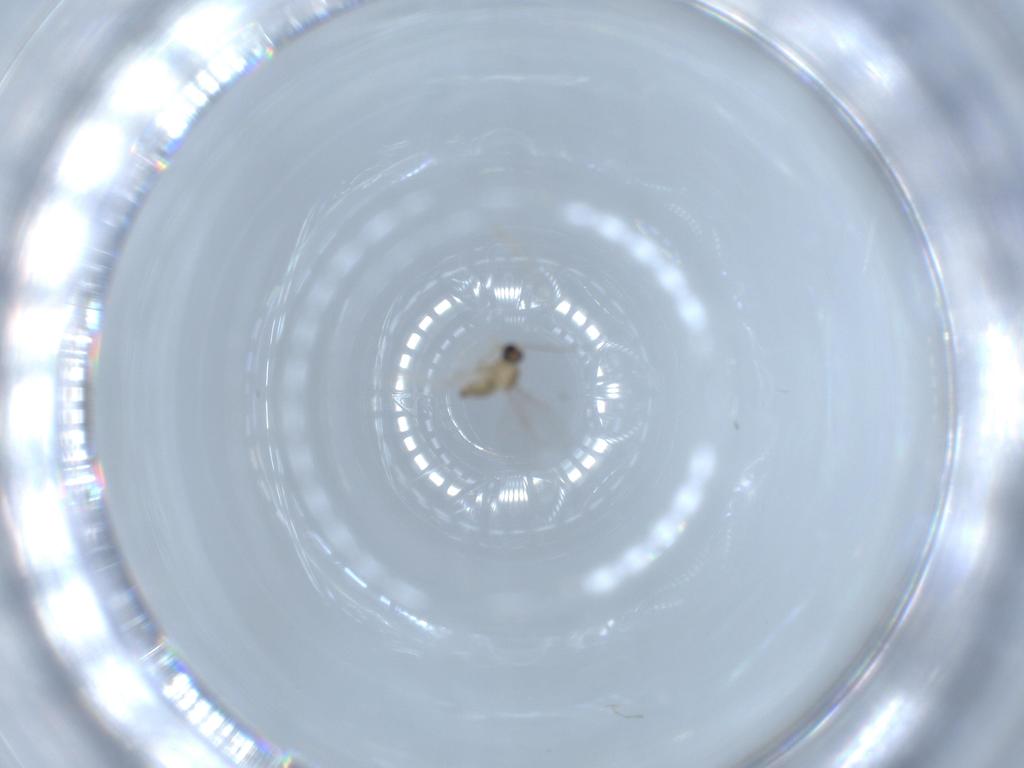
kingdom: Animalia
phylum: Arthropoda
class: Insecta
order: Diptera
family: Cecidomyiidae
